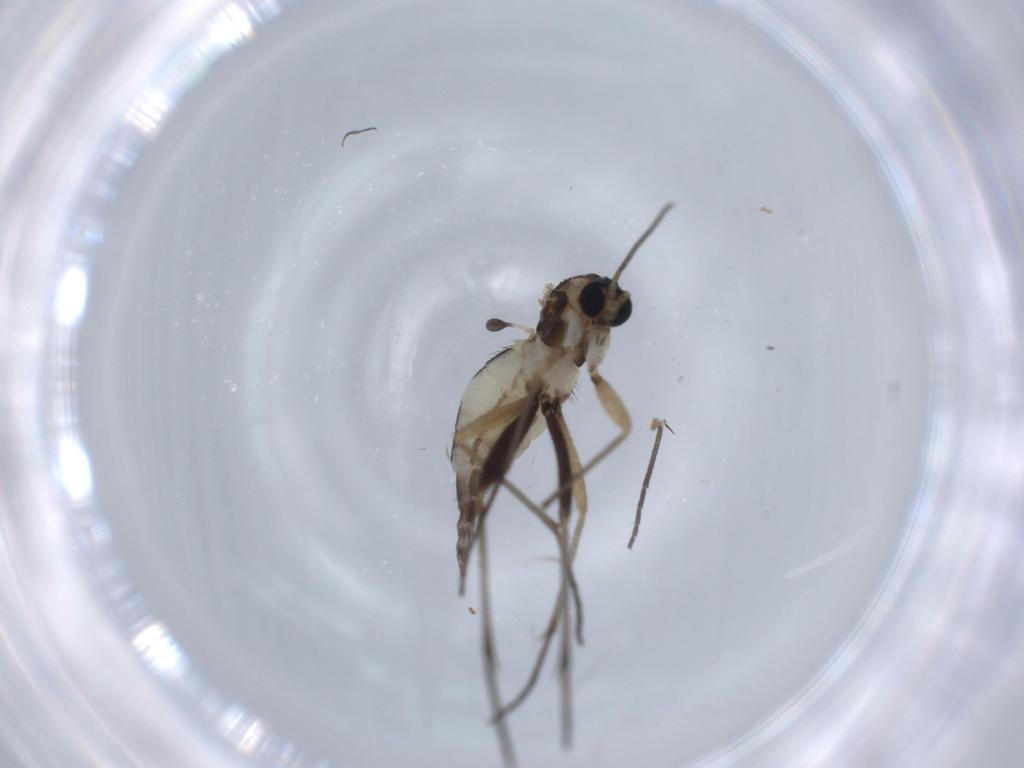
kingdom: Animalia
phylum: Arthropoda
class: Insecta
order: Diptera
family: Sciaridae
